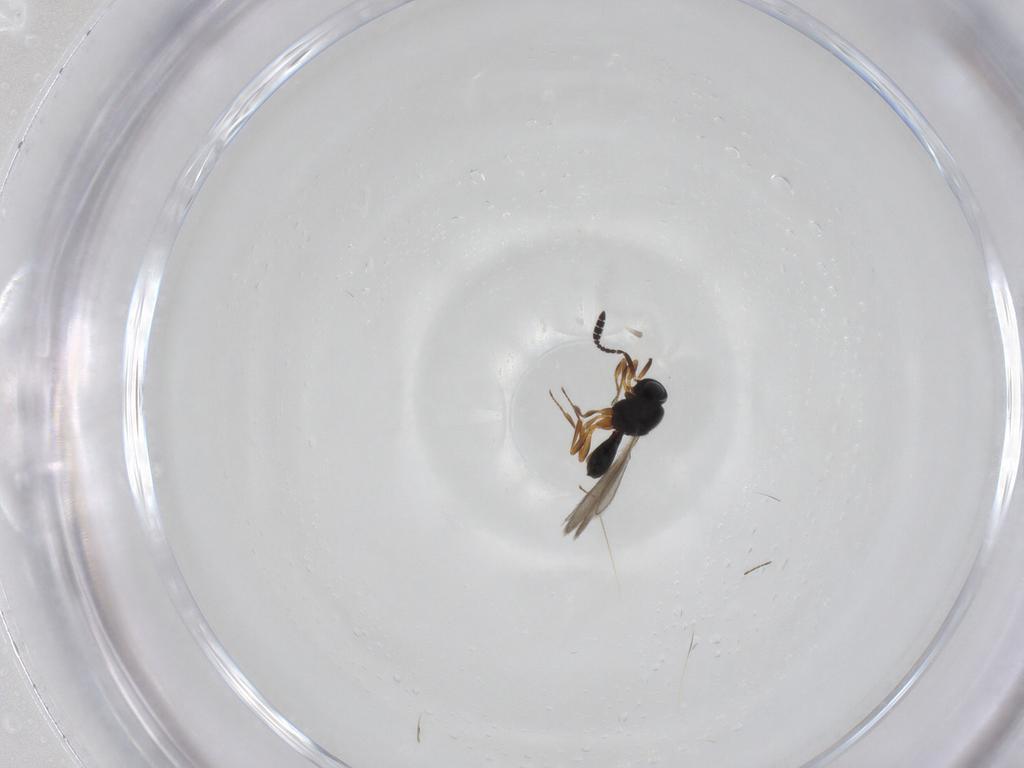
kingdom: Animalia
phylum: Arthropoda
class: Insecta
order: Hymenoptera
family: Scelionidae
